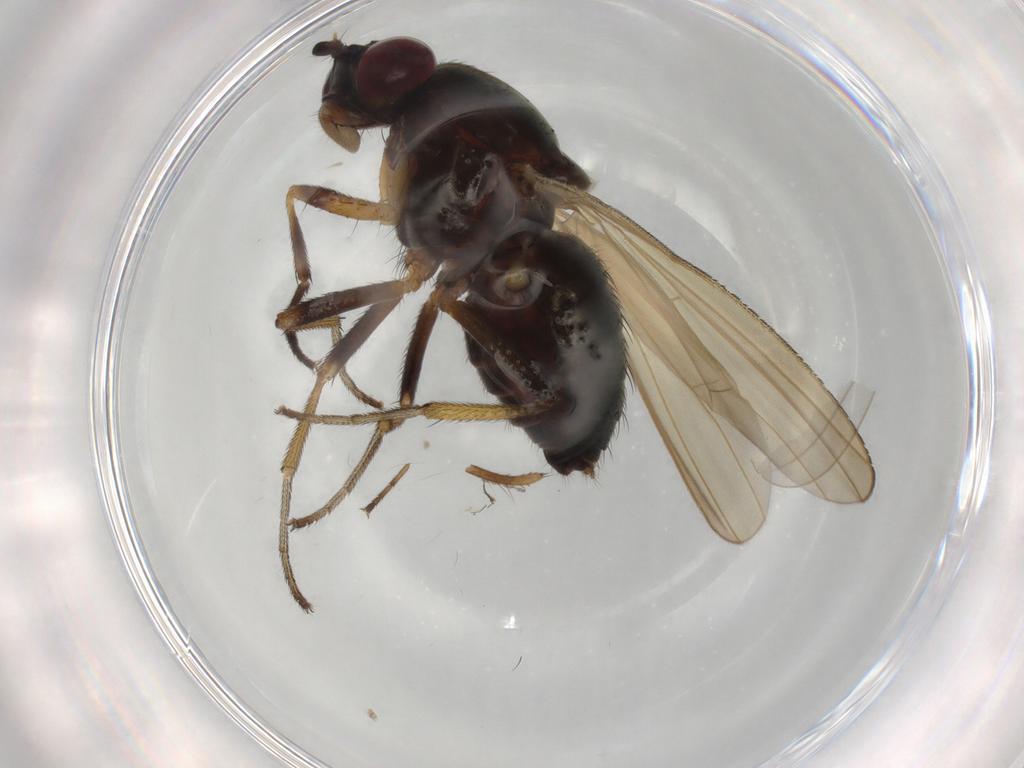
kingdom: Animalia
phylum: Arthropoda
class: Insecta
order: Diptera
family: Phoridae
